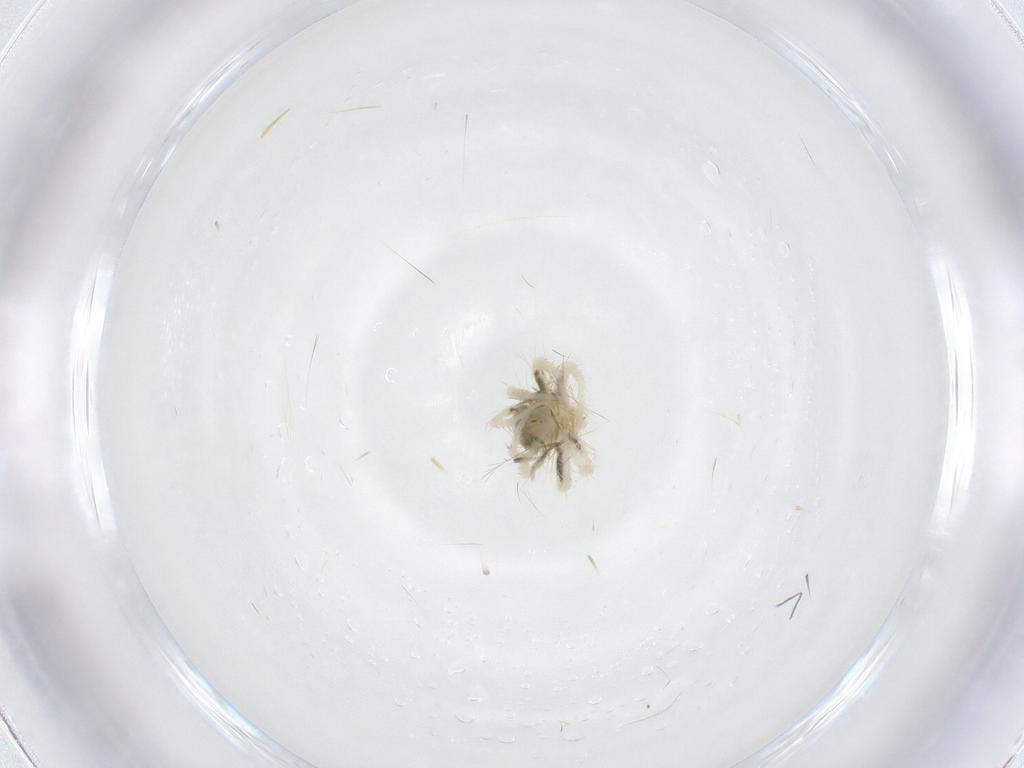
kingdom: Animalia
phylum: Arthropoda
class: Arachnida
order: Trombidiformes
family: Anystidae
